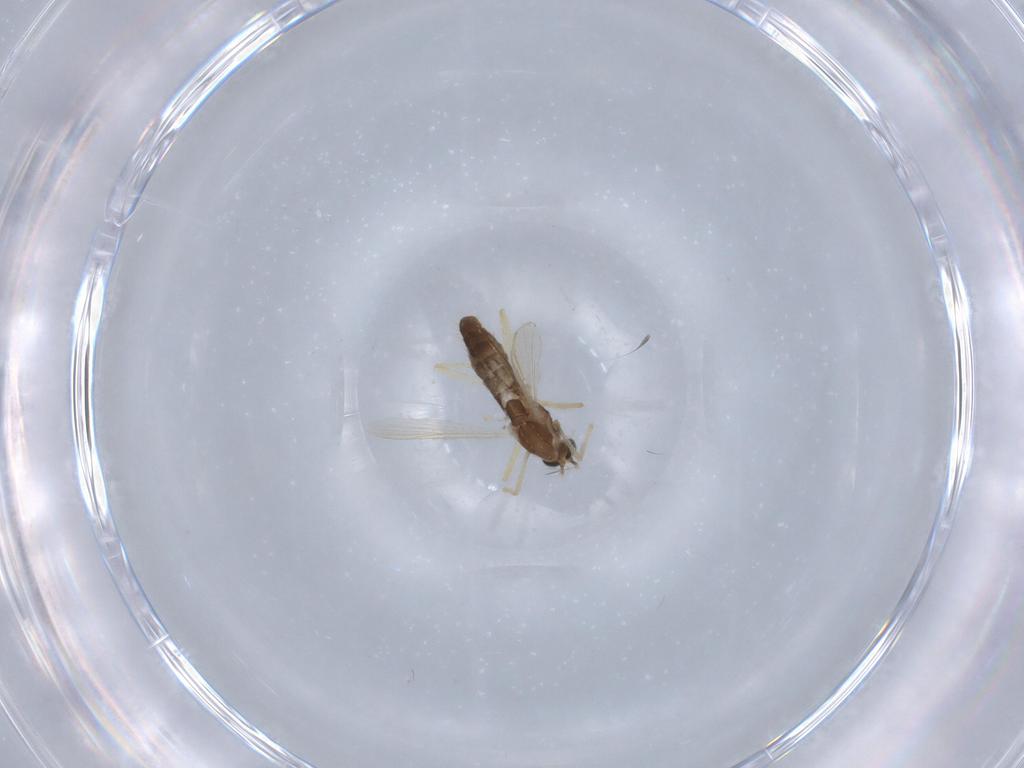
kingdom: Animalia
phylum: Arthropoda
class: Insecta
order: Diptera
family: Chironomidae
